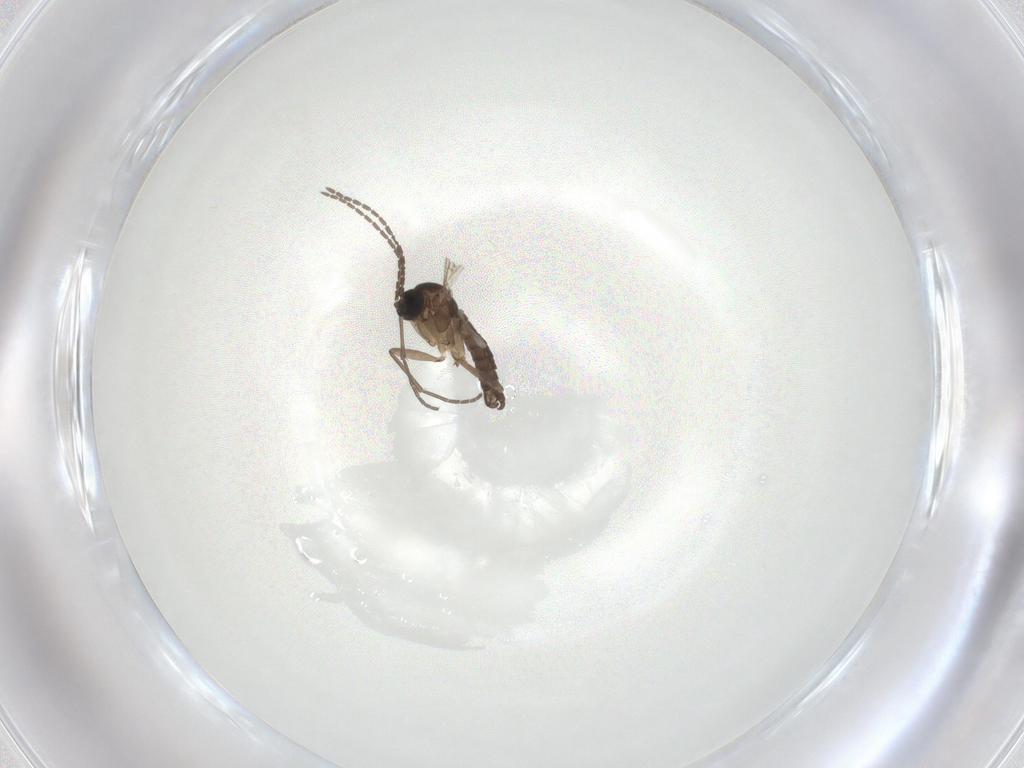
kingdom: Animalia
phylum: Arthropoda
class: Insecta
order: Diptera
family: Sciaridae
